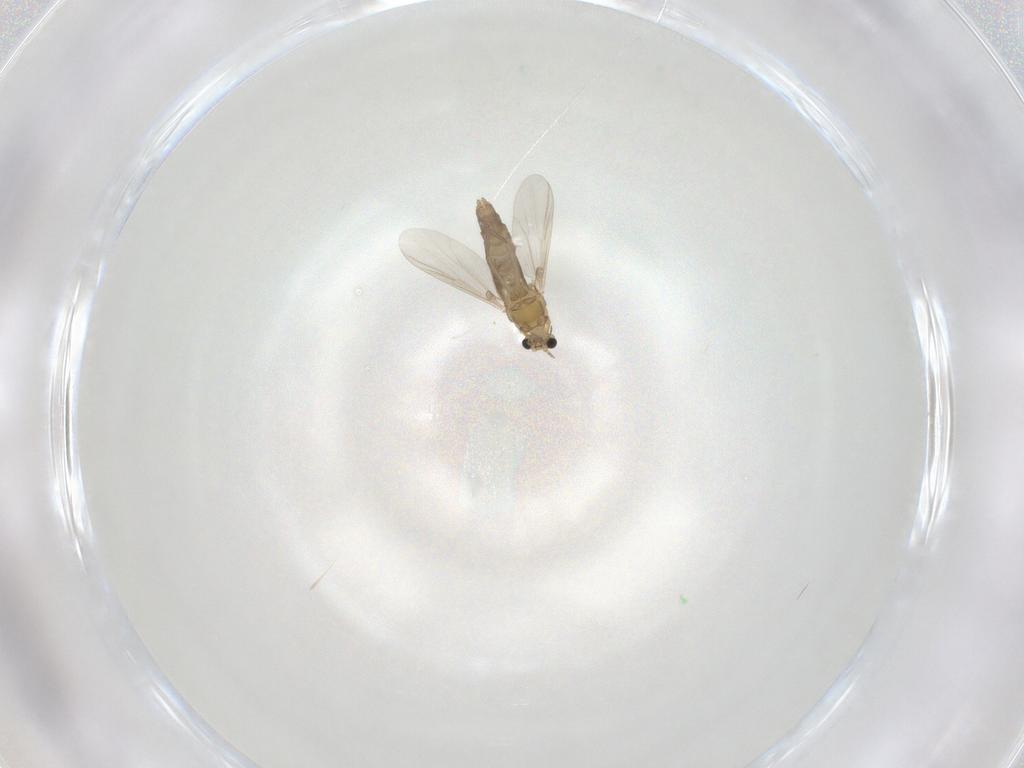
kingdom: Animalia
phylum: Arthropoda
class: Insecta
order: Diptera
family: Chironomidae
